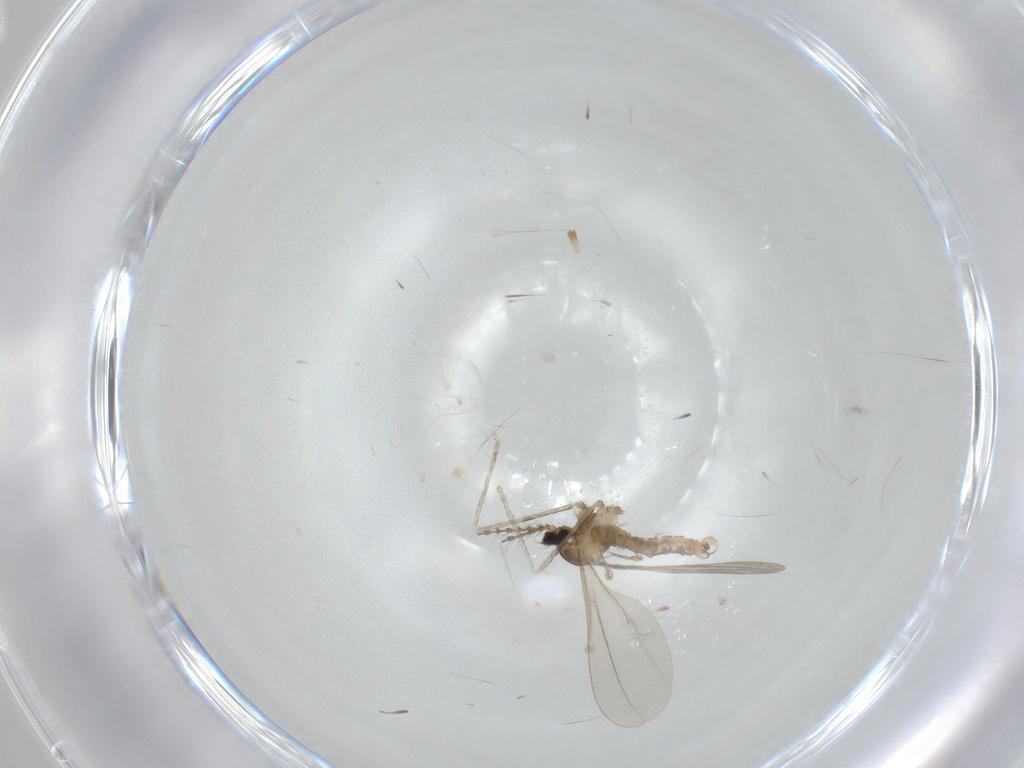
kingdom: Animalia
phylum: Arthropoda
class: Insecta
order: Diptera
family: Cecidomyiidae
